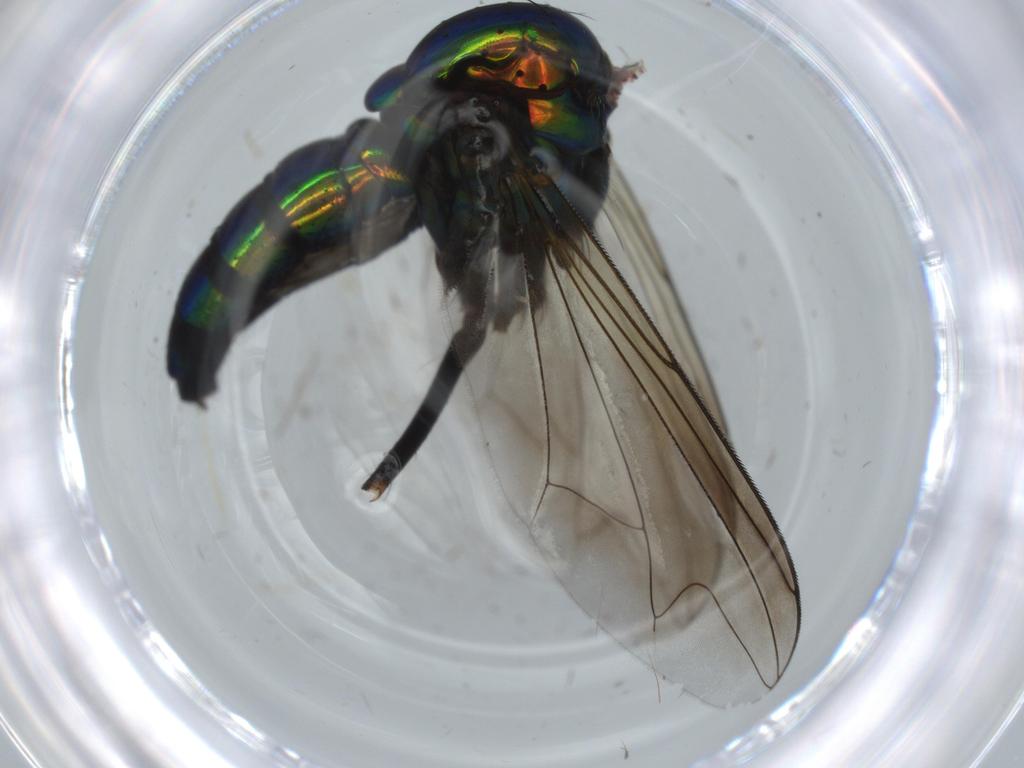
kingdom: Animalia
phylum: Arthropoda
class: Insecta
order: Diptera
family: Dolichopodidae
